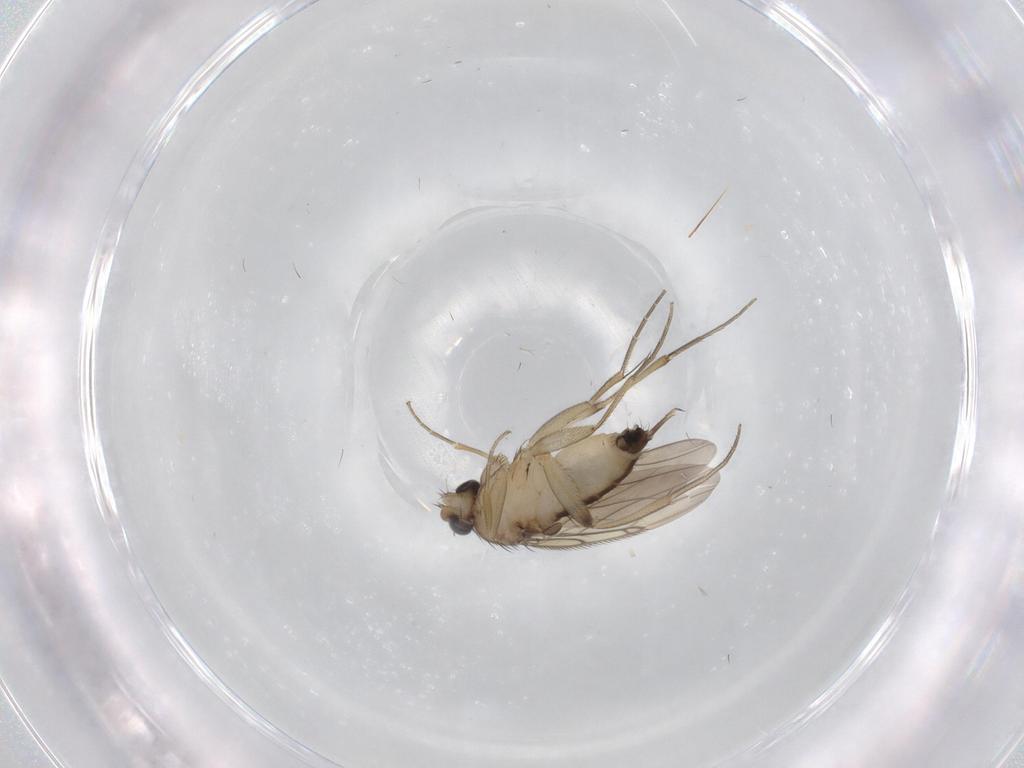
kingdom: Animalia
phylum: Arthropoda
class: Insecta
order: Diptera
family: Phoridae
